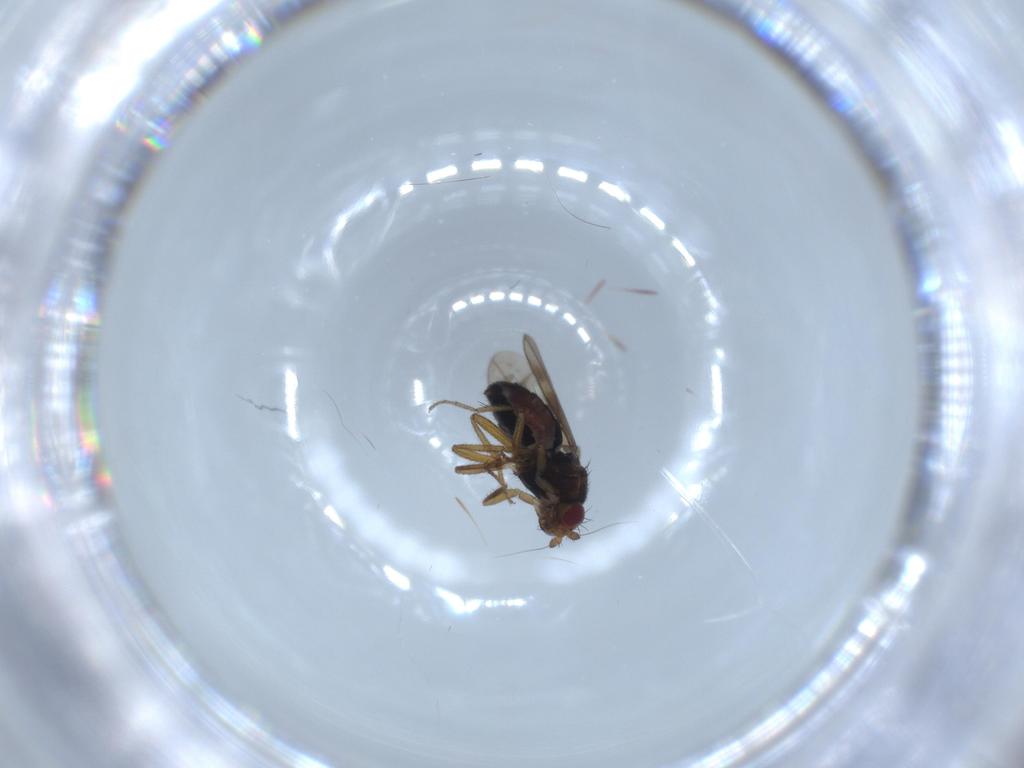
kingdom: Animalia
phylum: Arthropoda
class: Insecta
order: Diptera
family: Sphaeroceridae
